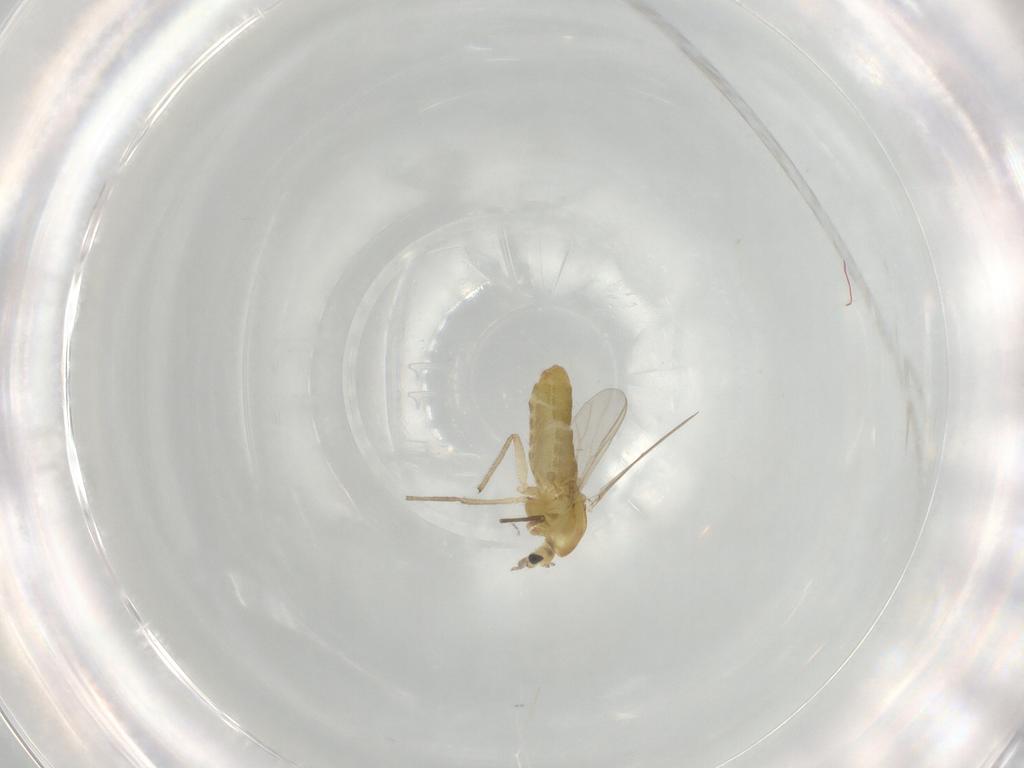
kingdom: Animalia
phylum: Arthropoda
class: Insecta
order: Diptera
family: Chironomidae
